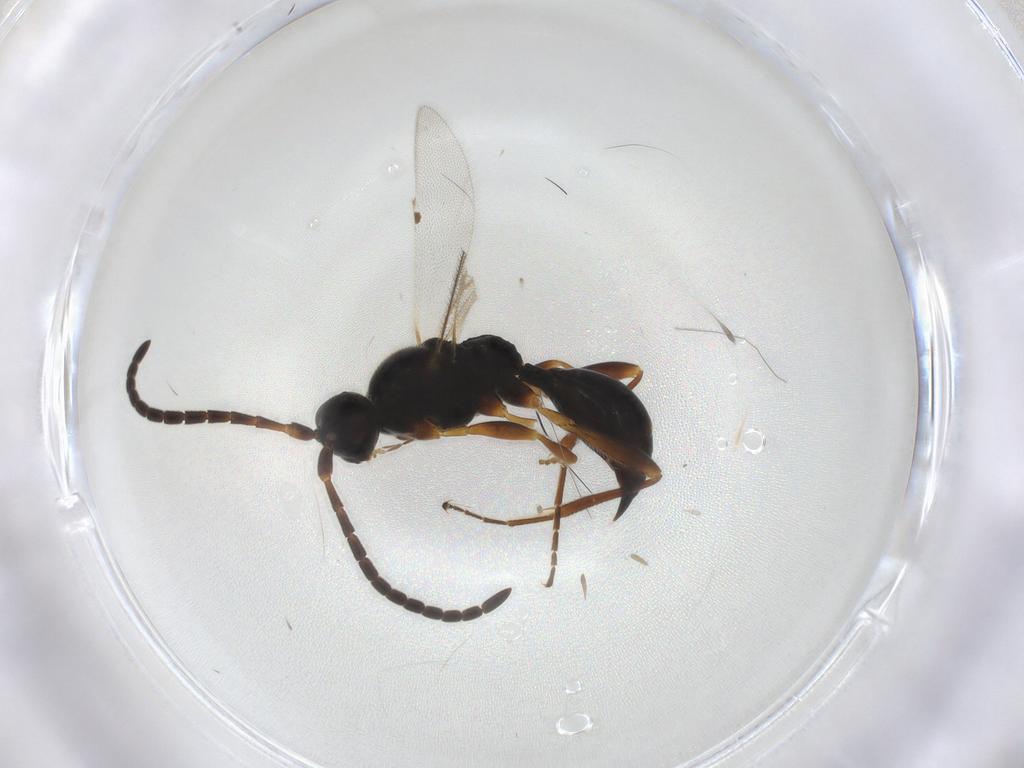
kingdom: Animalia
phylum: Arthropoda
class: Insecta
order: Hymenoptera
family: Proctotrupidae
